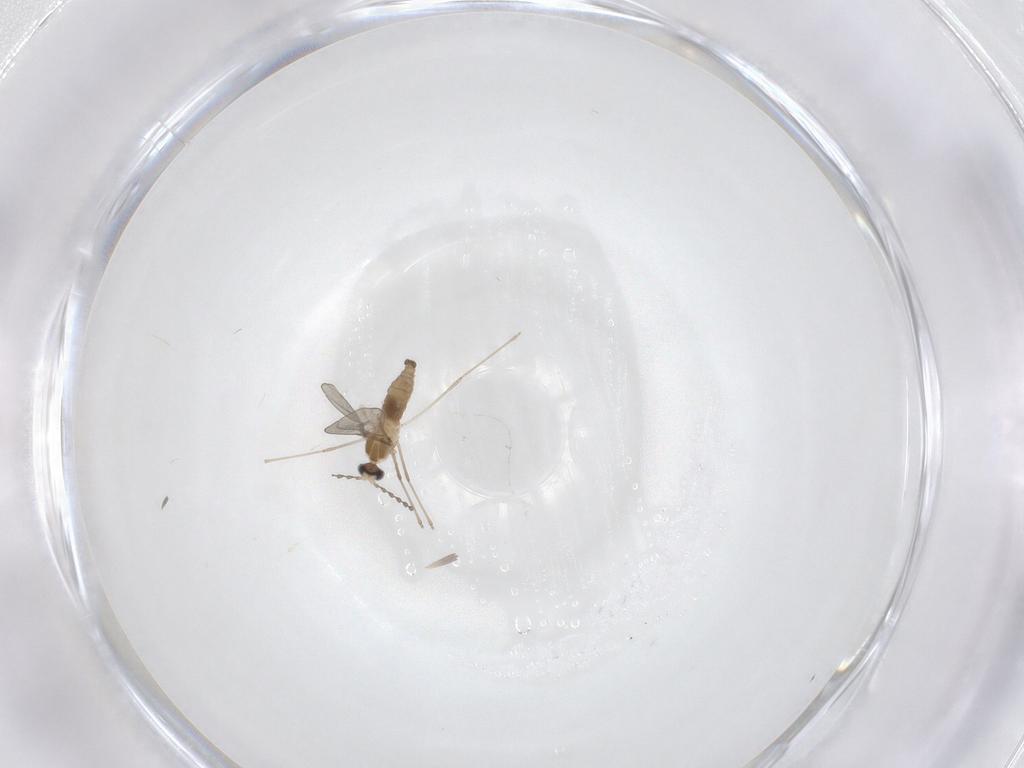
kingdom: Animalia
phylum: Arthropoda
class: Insecta
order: Diptera
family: Cecidomyiidae
